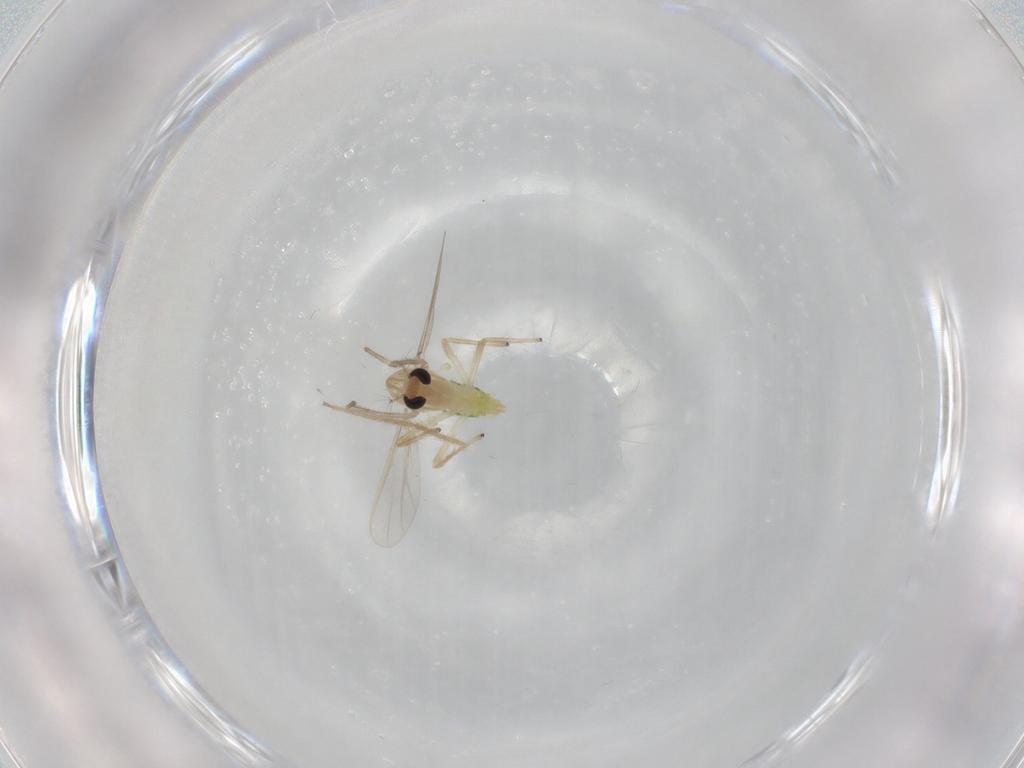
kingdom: Animalia
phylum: Arthropoda
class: Insecta
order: Diptera
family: Chironomidae
